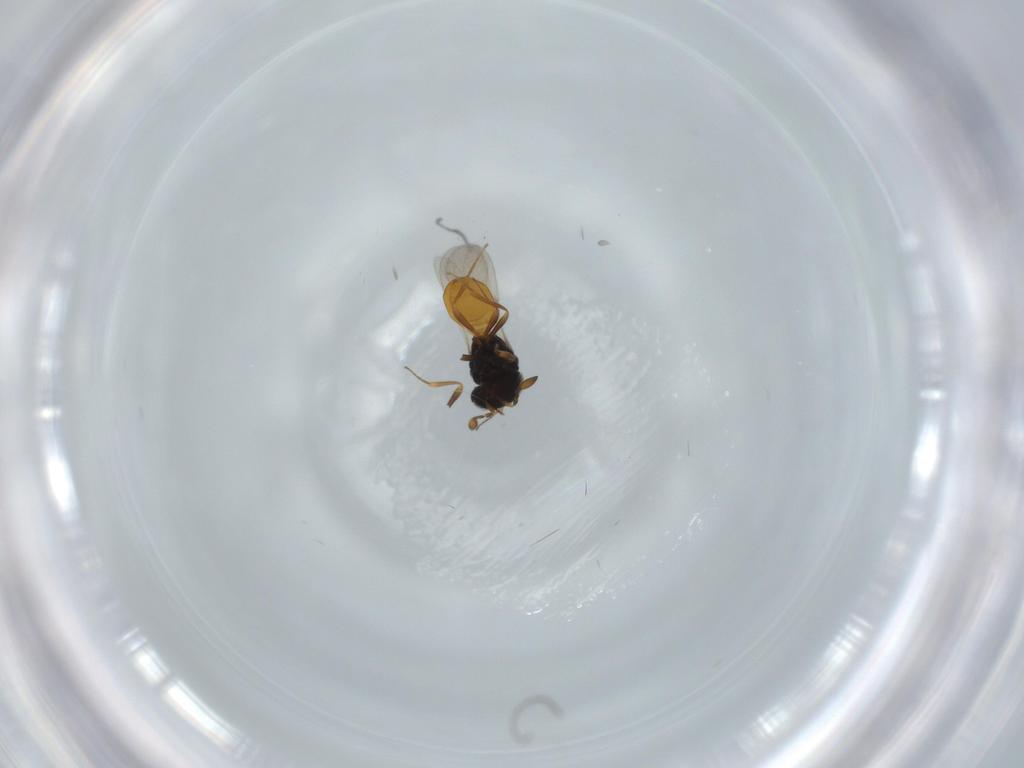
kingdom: Animalia
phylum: Arthropoda
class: Insecta
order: Hymenoptera
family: Scelionidae
